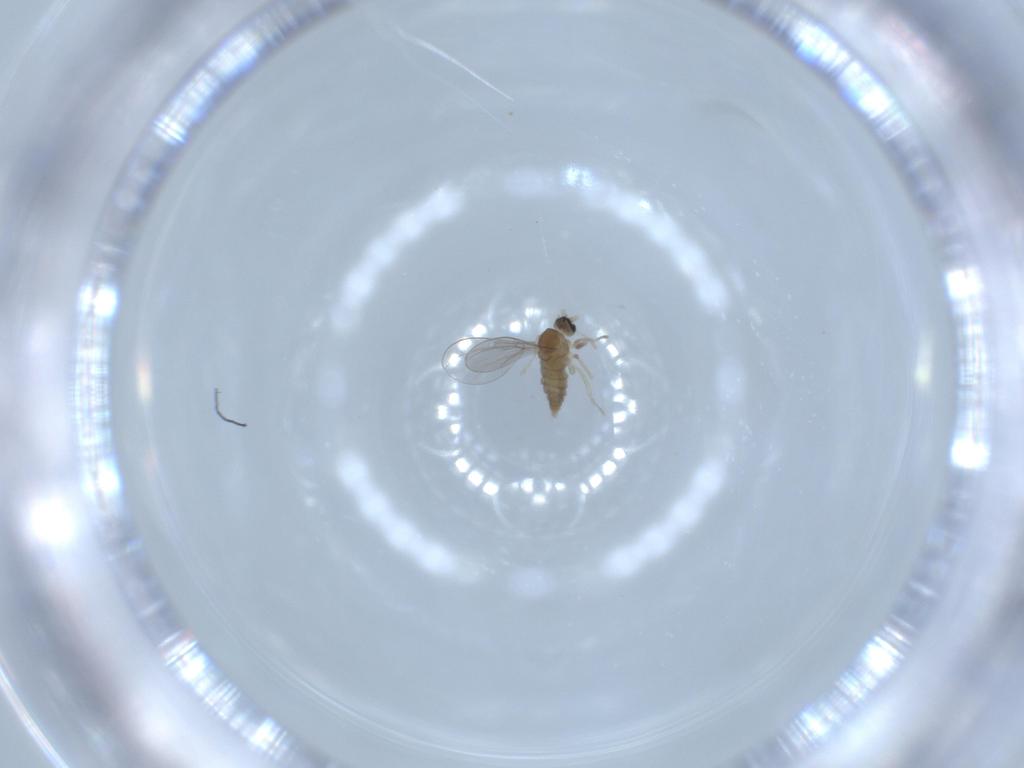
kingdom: Animalia
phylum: Arthropoda
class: Insecta
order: Diptera
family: Cecidomyiidae
